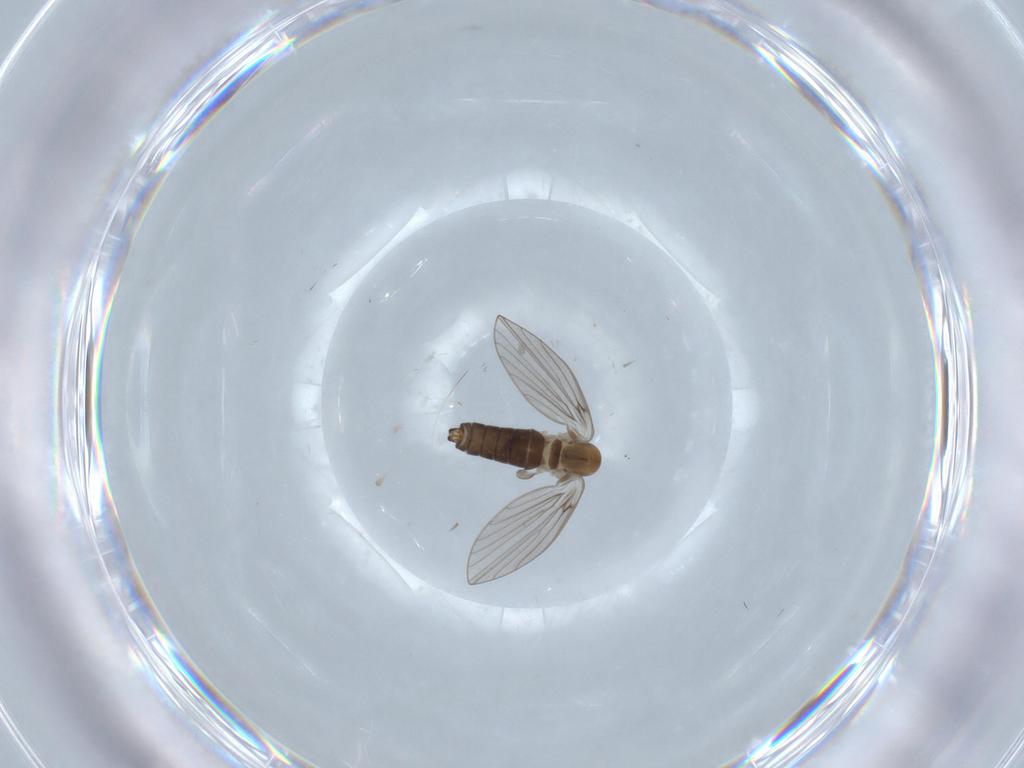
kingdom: Animalia
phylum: Arthropoda
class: Insecta
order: Diptera
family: Psychodidae
